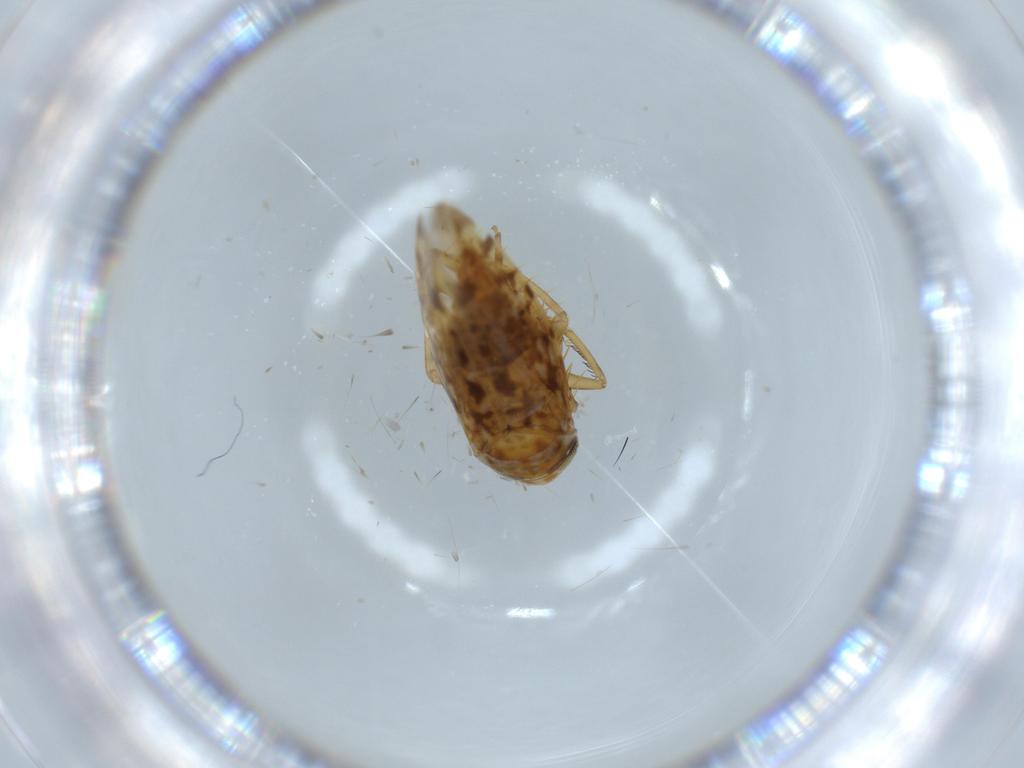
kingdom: Animalia
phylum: Arthropoda
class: Insecta
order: Hemiptera
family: Cicadellidae
